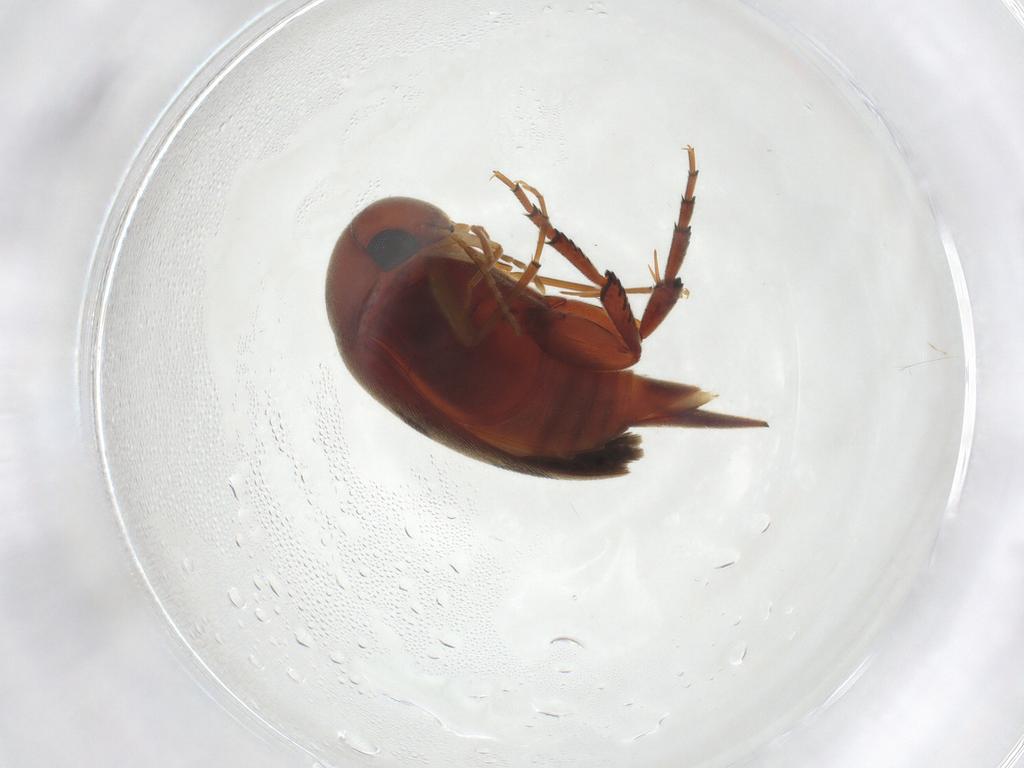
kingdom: Animalia
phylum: Arthropoda
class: Insecta
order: Coleoptera
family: Mordellidae
